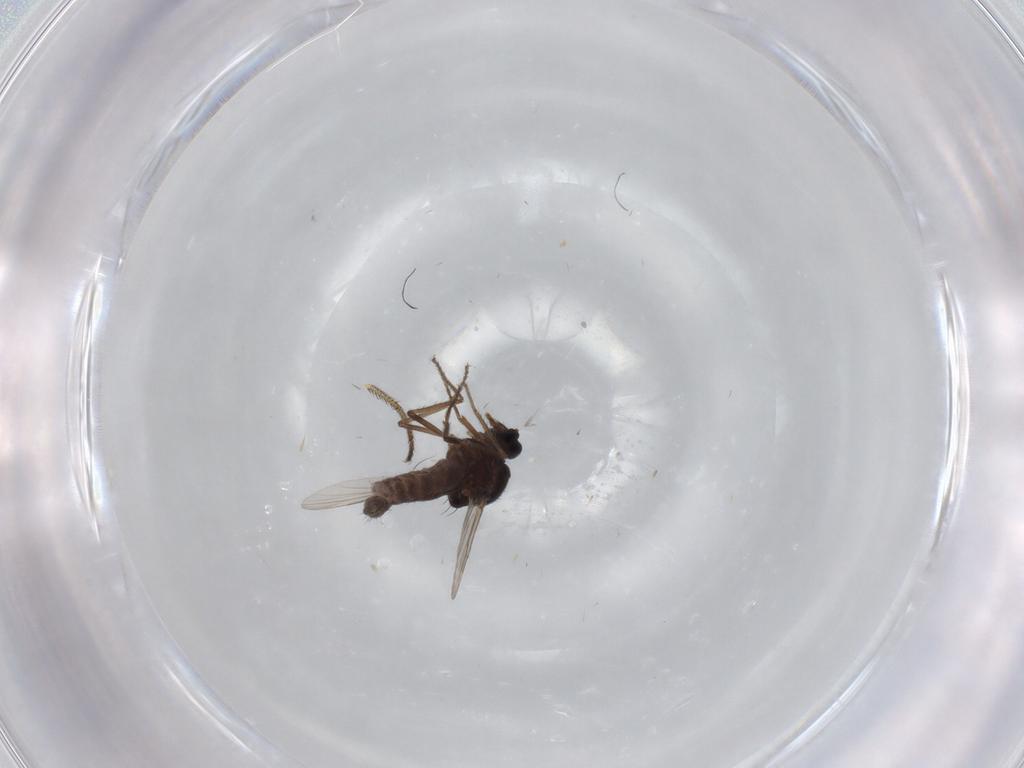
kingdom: Animalia
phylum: Arthropoda
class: Insecta
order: Diptera
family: Ceratopogonidae
